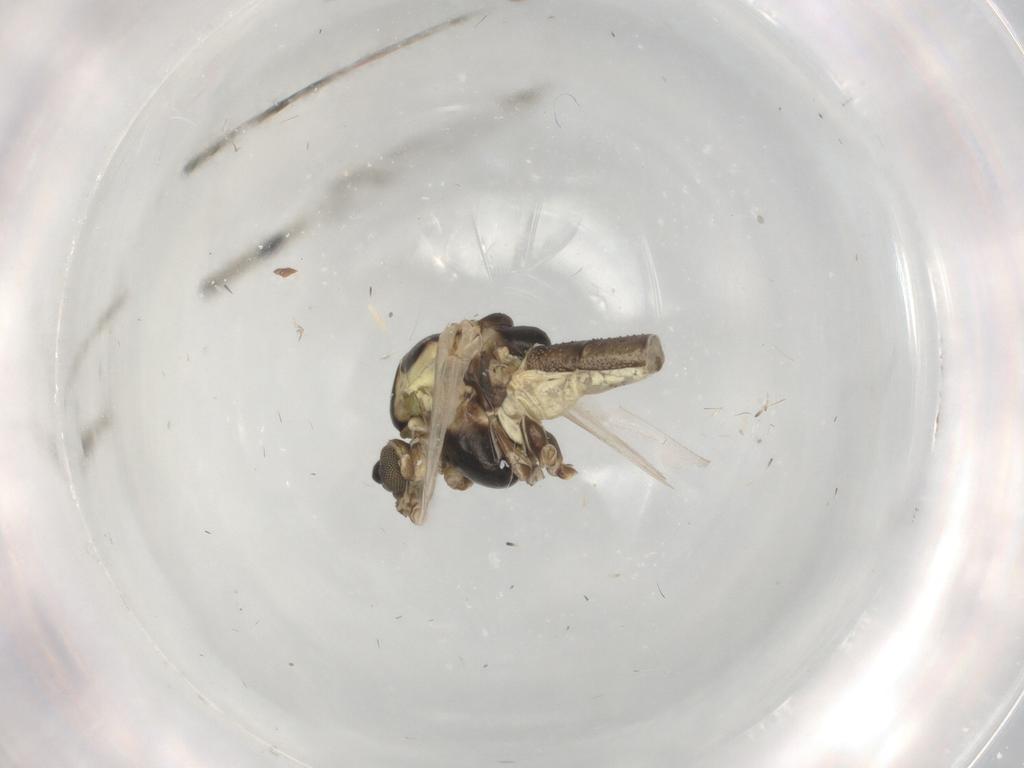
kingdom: Animalia
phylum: Arthropoda
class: Insecta
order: Diptera
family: Chironomidae
